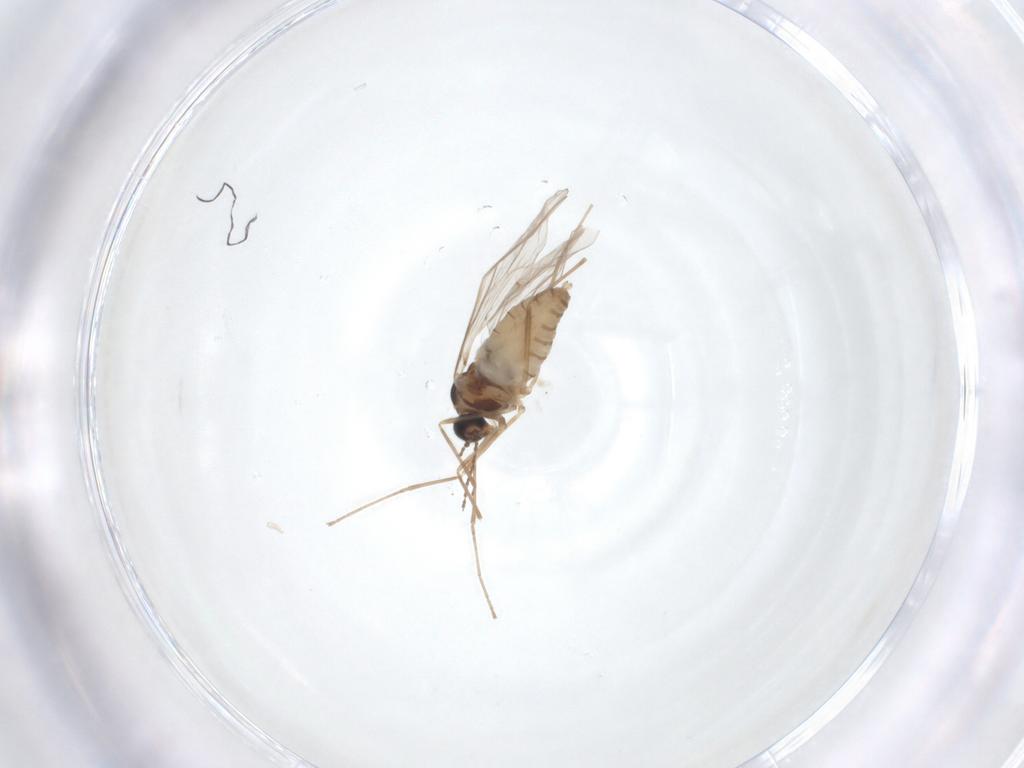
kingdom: Animalia
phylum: Arthropoda
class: Insecta
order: Diptera
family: Cecidomyiidae
